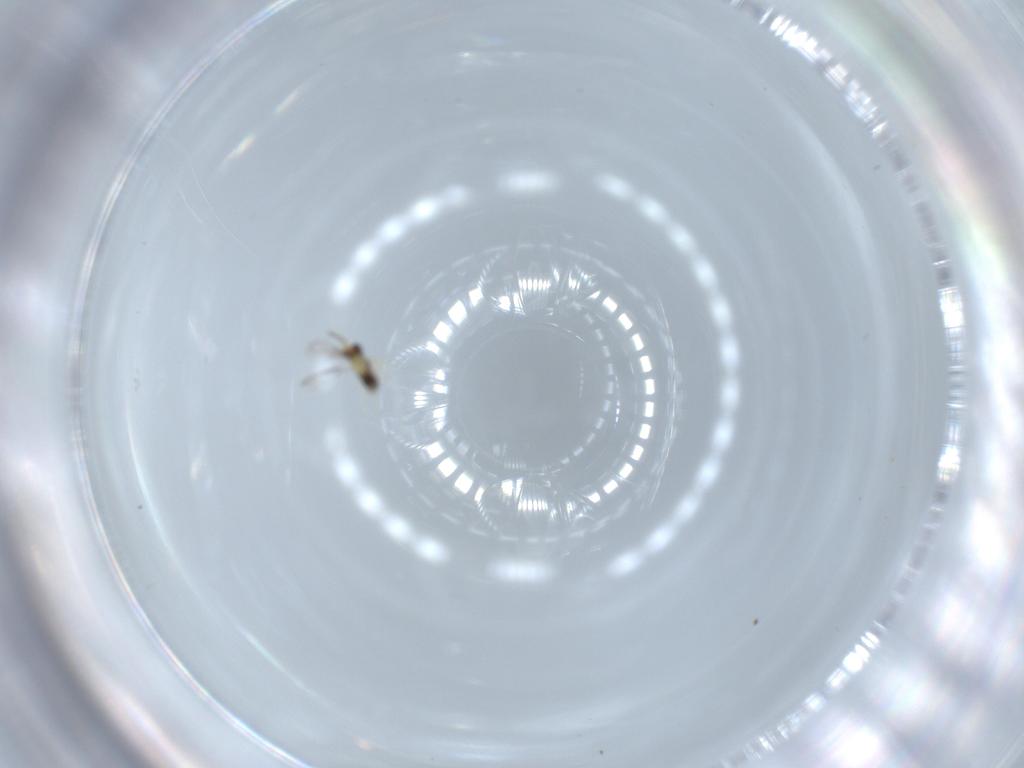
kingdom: Animalia
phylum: Arthropoda
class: Insecta
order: Hymenoptera
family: Aphelinidae
